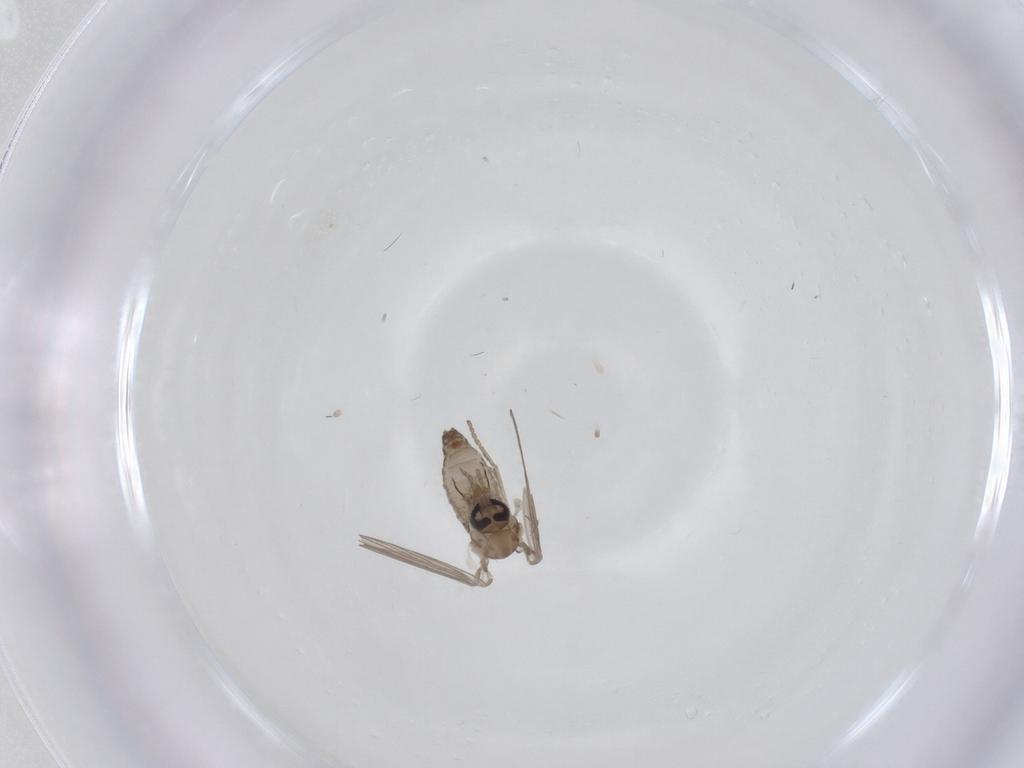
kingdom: Animalia
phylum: Arthropoda
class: Insecta
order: Diptera
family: Psychodidae
